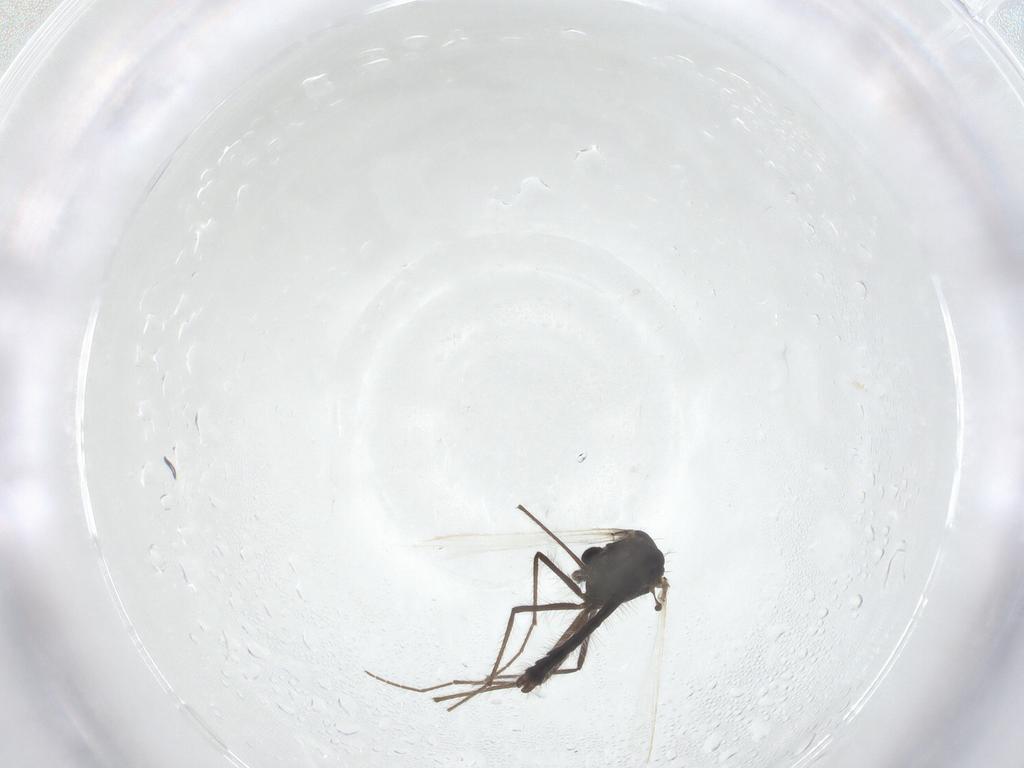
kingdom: Animalia
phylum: Arthropoda
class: Insecta
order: Diptera
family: Chironomidae
